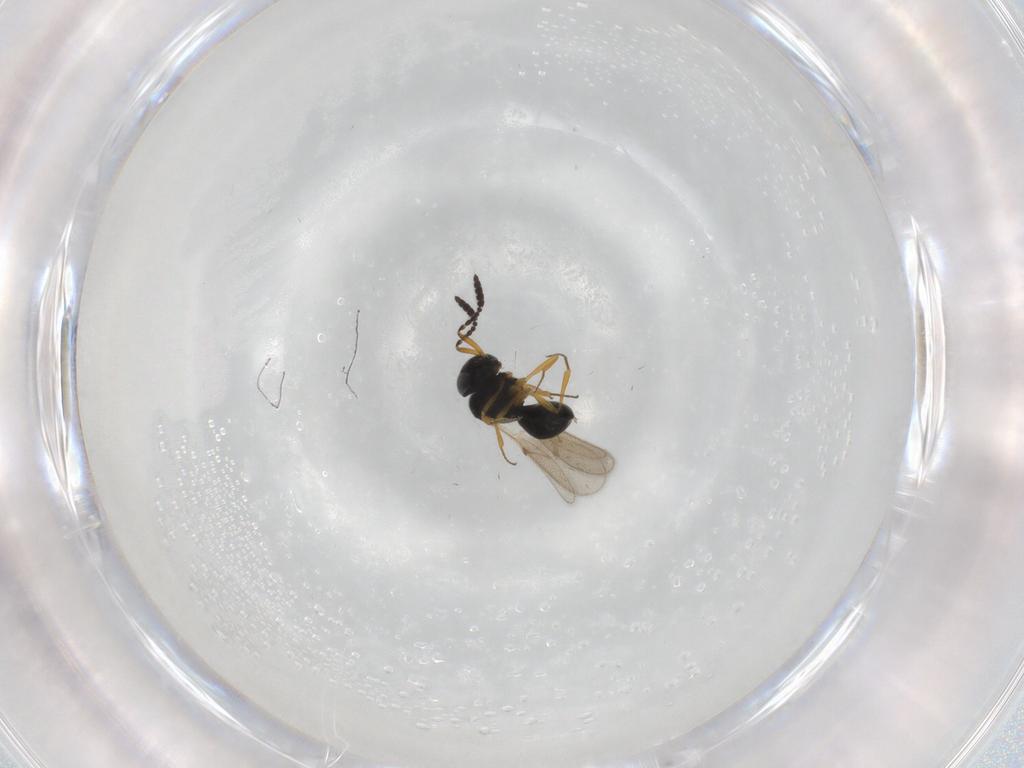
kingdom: Animalia
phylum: Arthropoda
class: Insecta
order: Hymenoptera
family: Scelionidae
